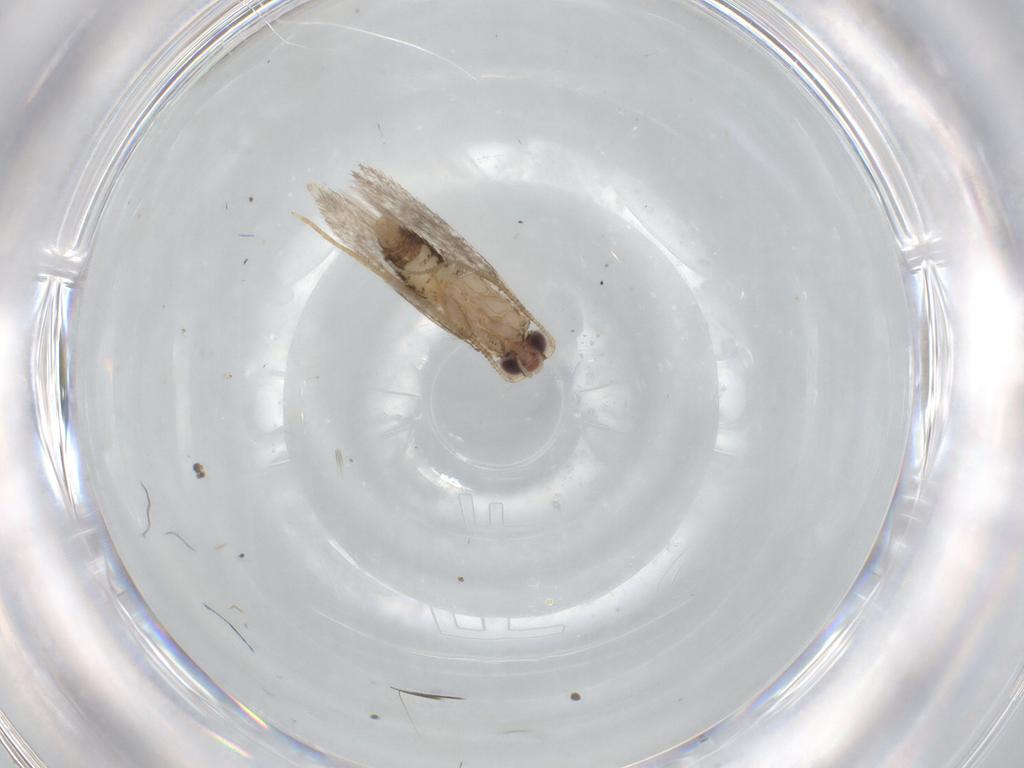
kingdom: Animalia
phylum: Arthropoda
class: Insecta
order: Lepidoptera
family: Autostichidae
